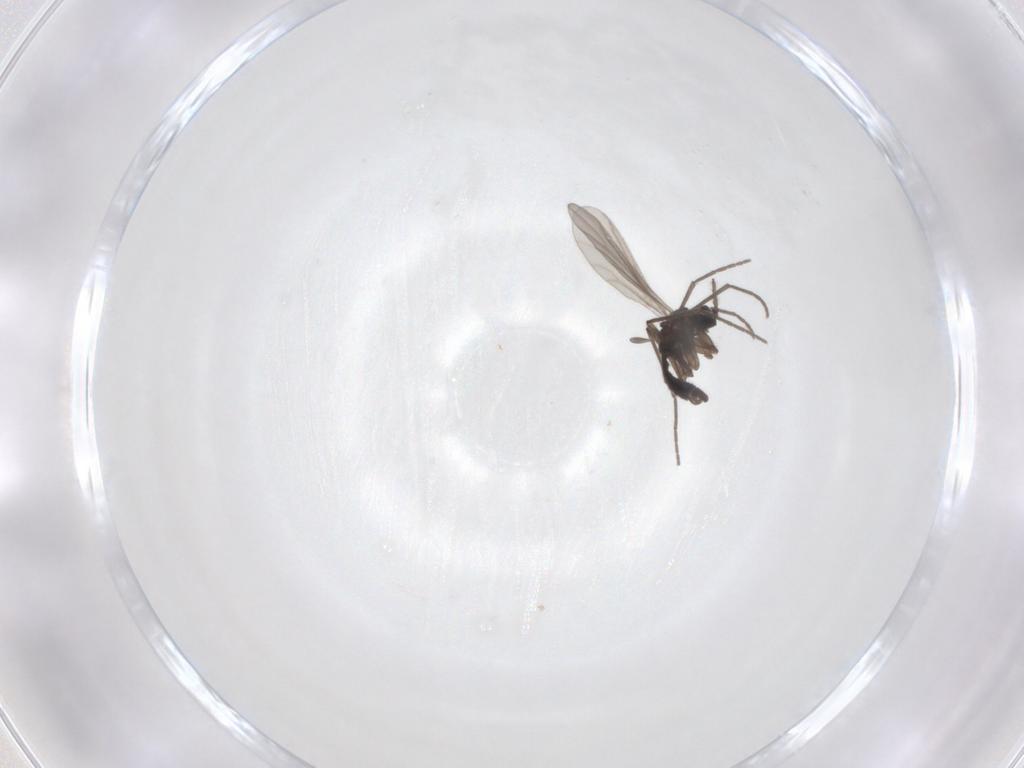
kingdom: Animalia
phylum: Arthropoda
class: Insecta
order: Diptera
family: Sciaridae
